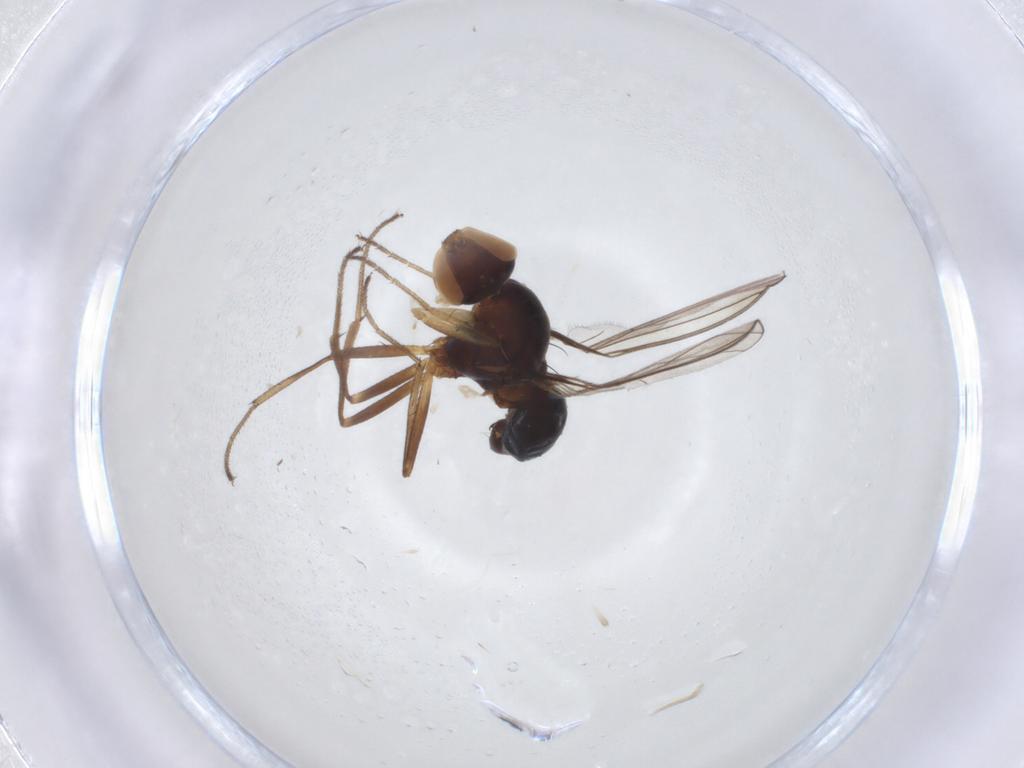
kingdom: Animalia
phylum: Arthropoda
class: Insecta
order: Diptera
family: Sepsidae
